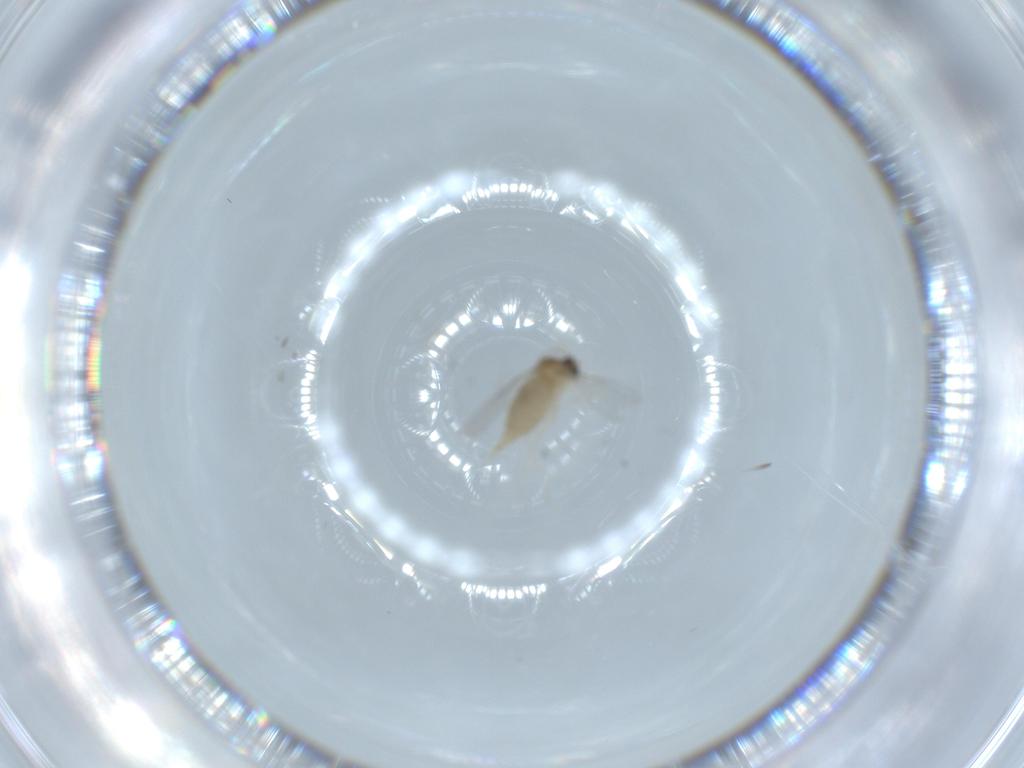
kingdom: Animalia
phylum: Arthropoda
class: Insecta
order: Diptera
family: Cecidomyiidae
